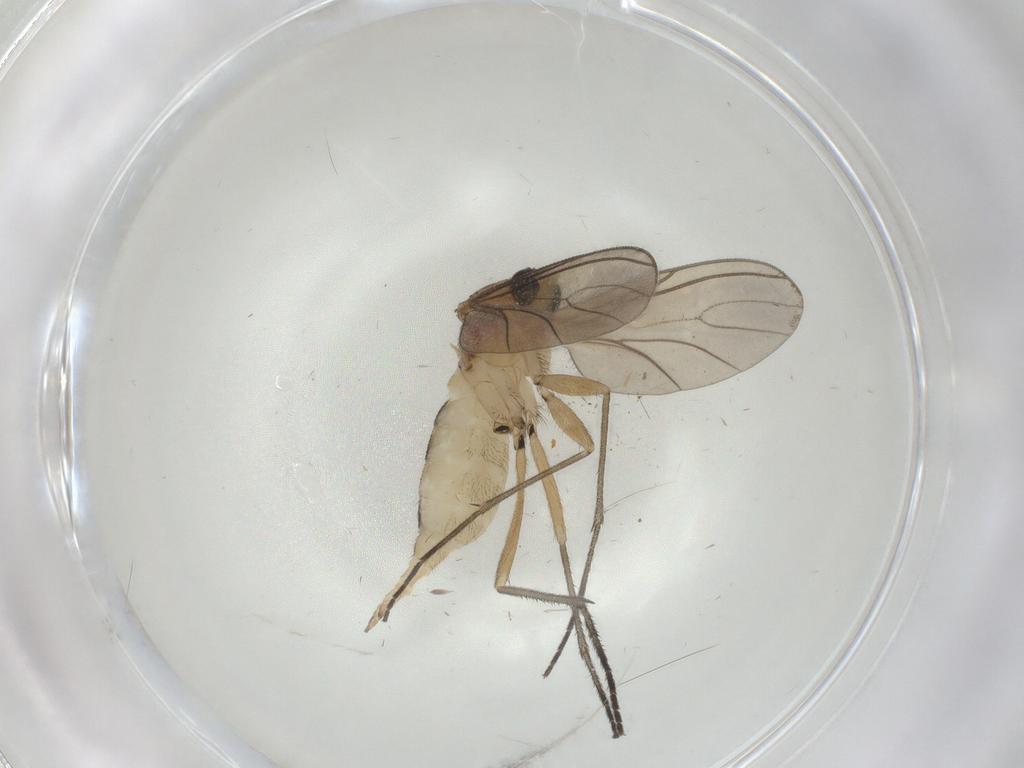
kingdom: Animalia
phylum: Arthropoda
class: Insecta
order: Diptera
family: Sciaridae
